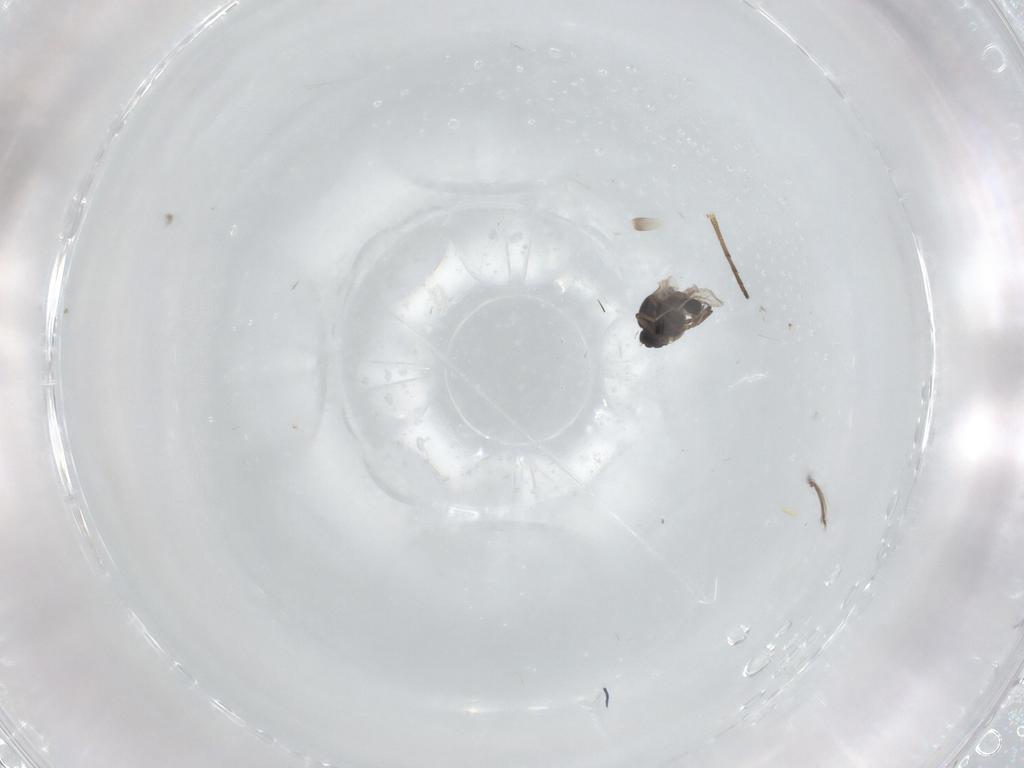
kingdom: Animalia
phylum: Arthropoda
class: Insecta
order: Diptera
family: Ceratopogonidae
